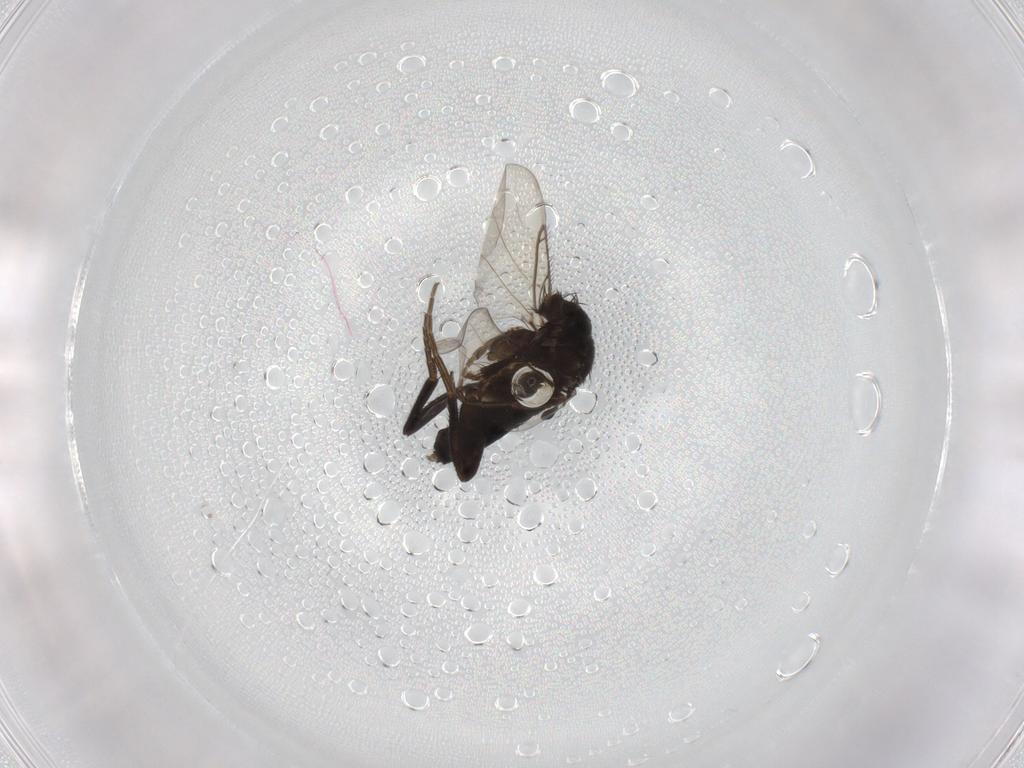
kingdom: Animalia
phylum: Arthropoda
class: Insecta
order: Diptera
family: Phoridae
